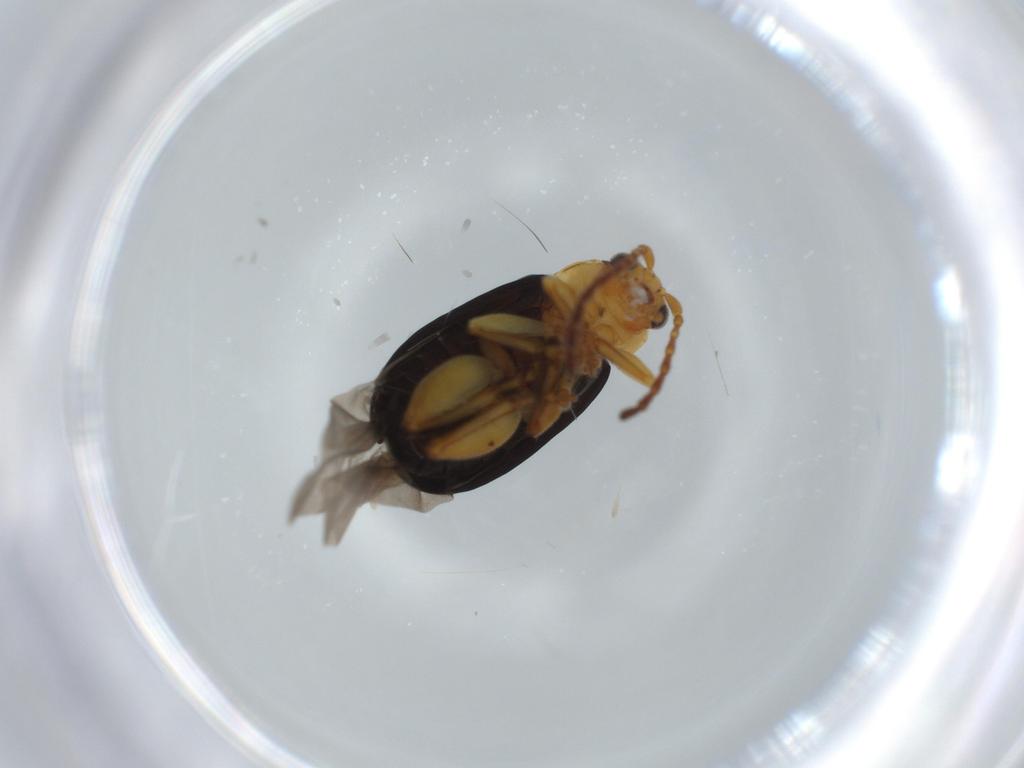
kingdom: Animalia
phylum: Arthropoda
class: Insecta
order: Coleoptera
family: Chrysomelidae
